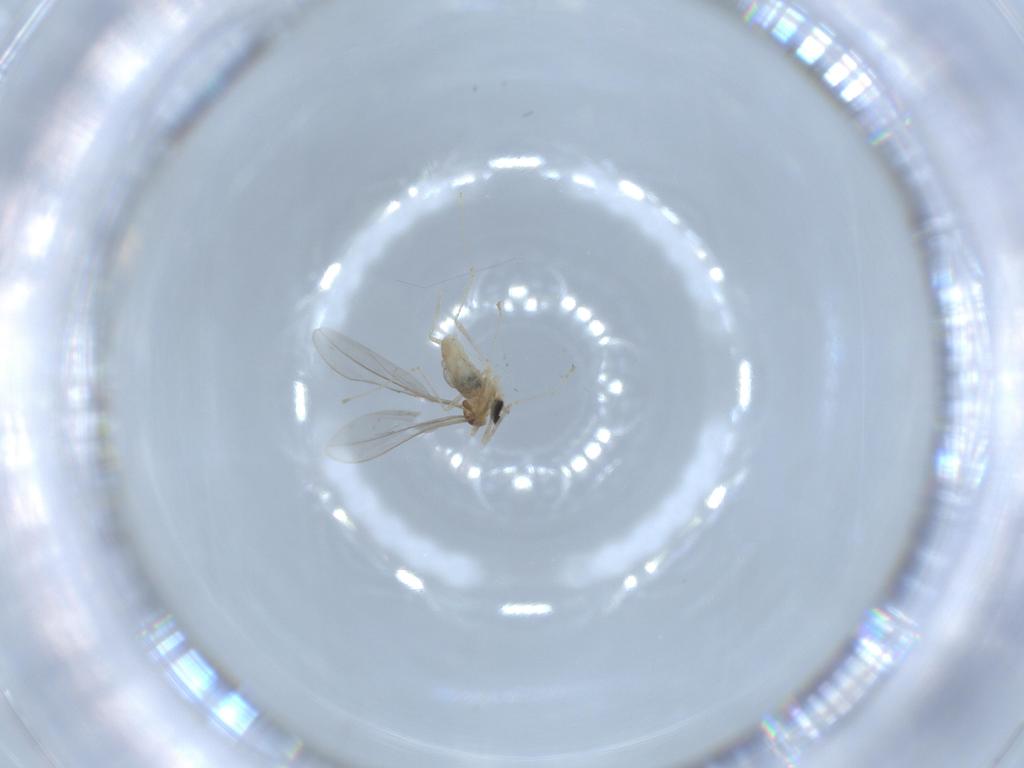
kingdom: Animalia
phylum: Arthropoda
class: Insecta
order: Diptera
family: Cecidomyiidae
